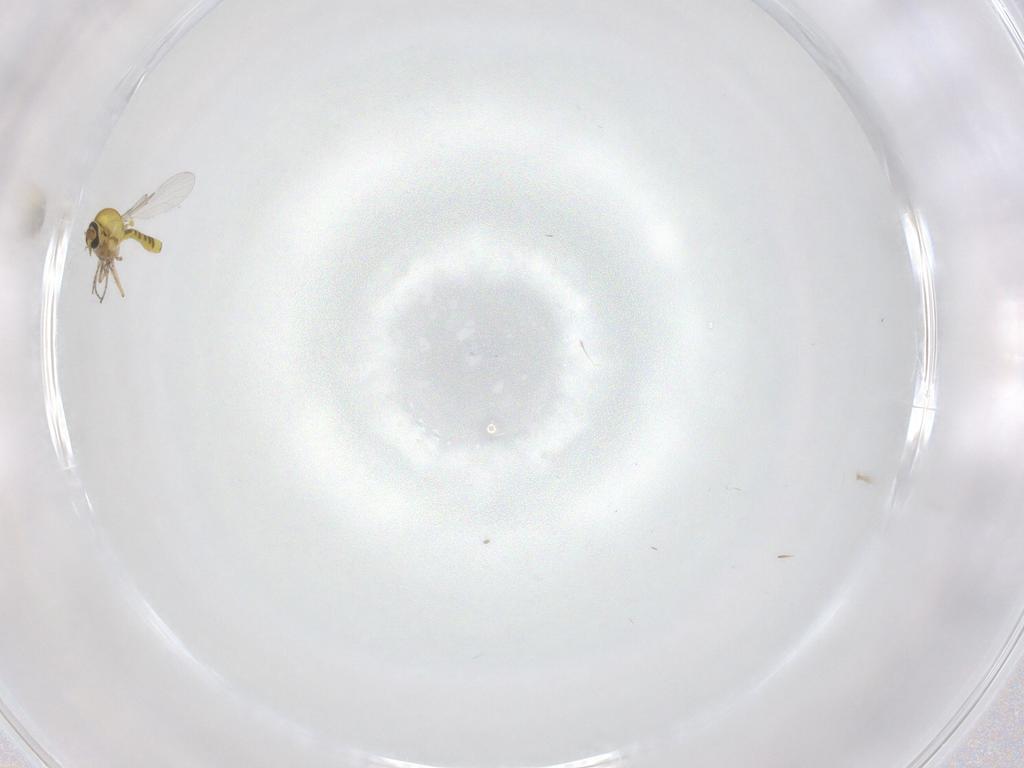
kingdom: Animalia
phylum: Arthropoda
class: Insecta
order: Diptera
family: Ceratopogonidae
